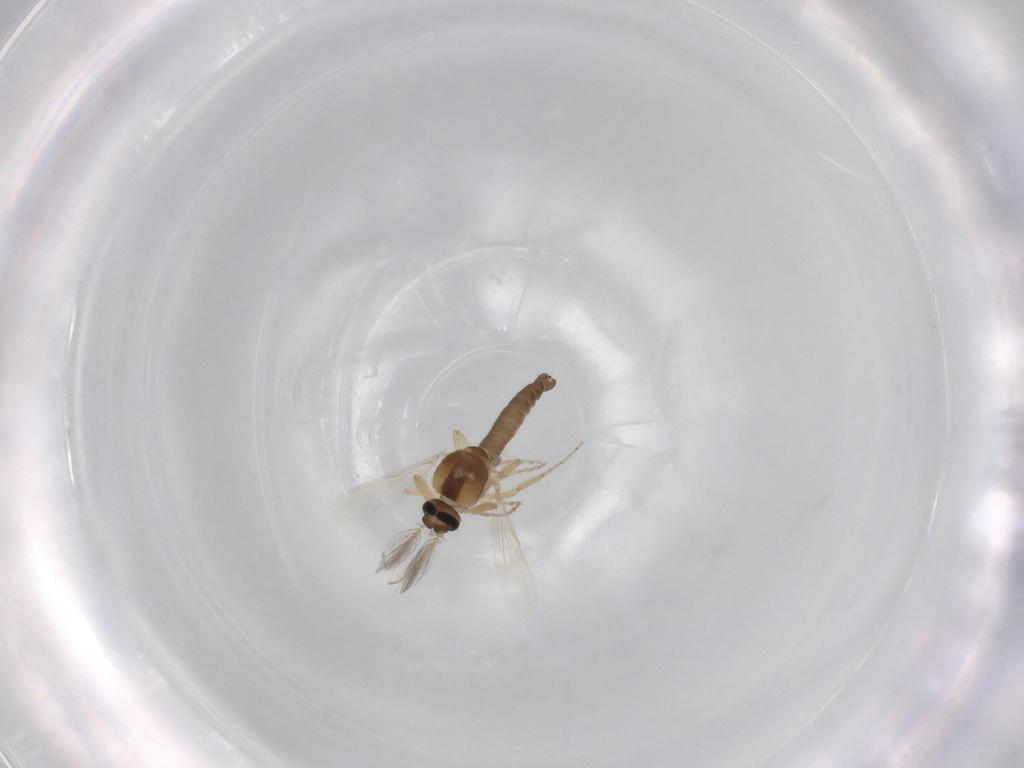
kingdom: Animalia
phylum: Arthropoda
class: Insecta
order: Diptera
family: Ceratopogonidae
